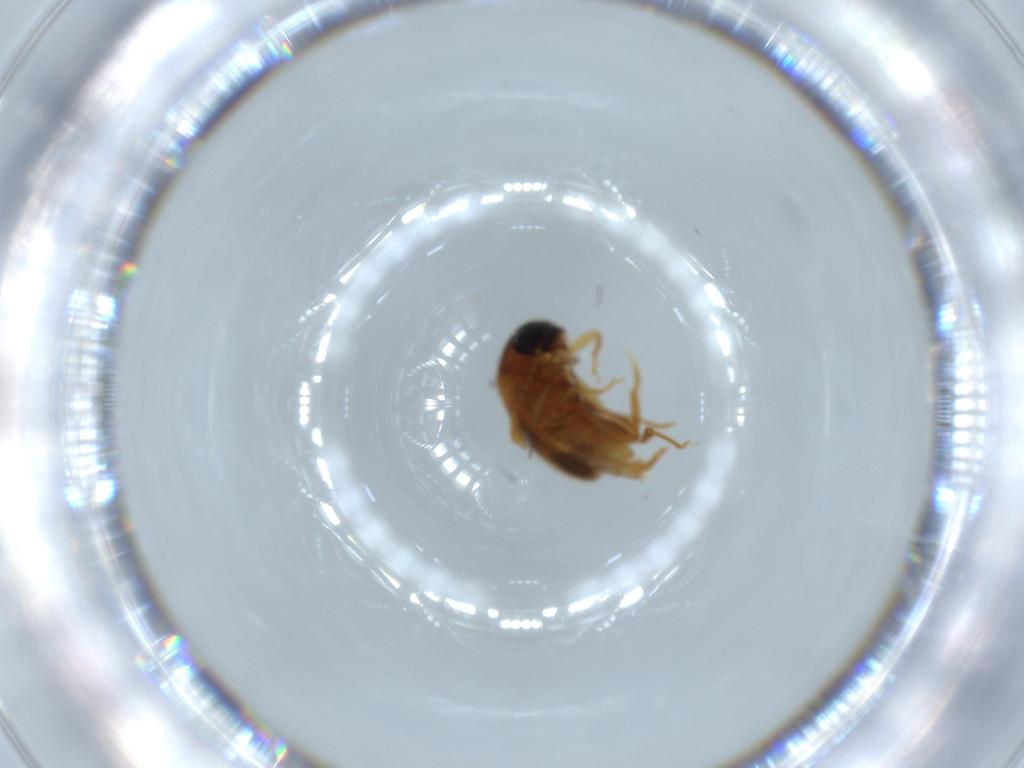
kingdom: Animalia
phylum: Arthropoda
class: Insecta
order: Coleoptera
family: Aderidae
